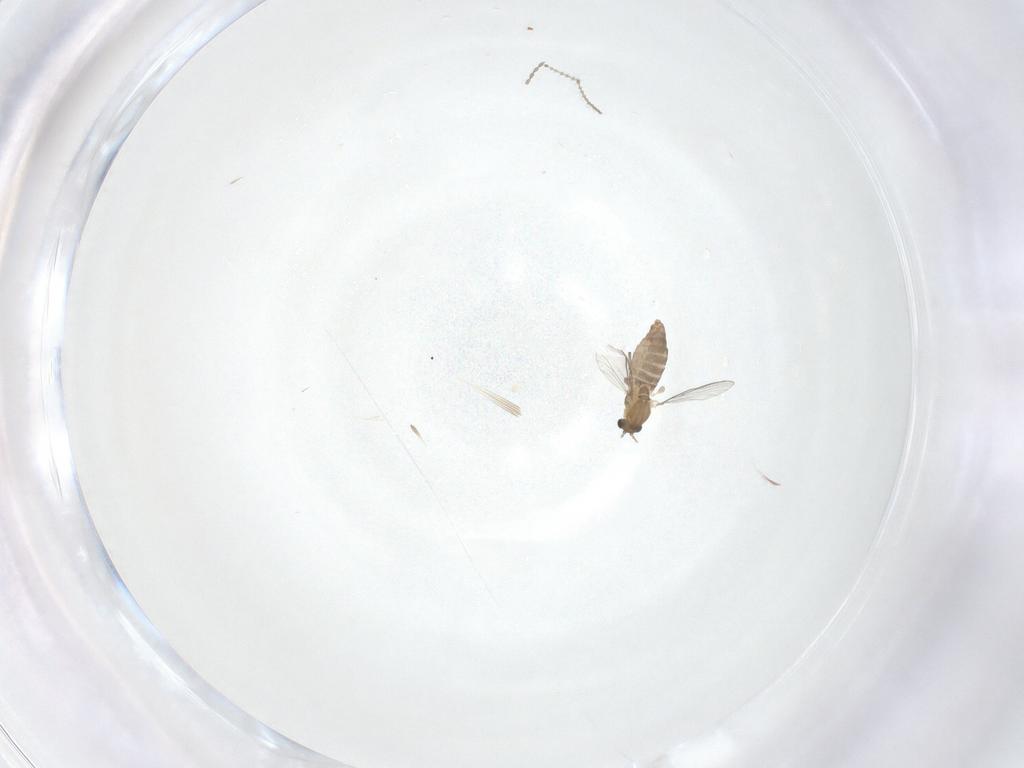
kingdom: Animalia
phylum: Arthropoda
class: Insecta
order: Diptera
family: Chironomidae
